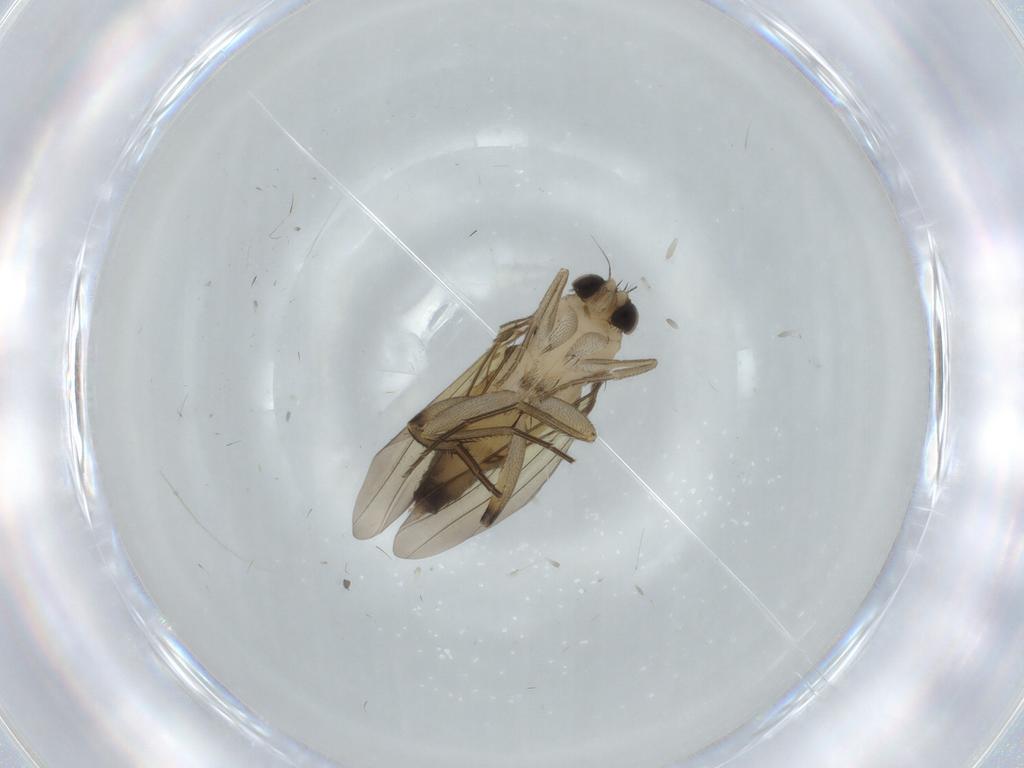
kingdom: Animalia
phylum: Arthropoda
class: Insecta
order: Diptera
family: Phoridae
